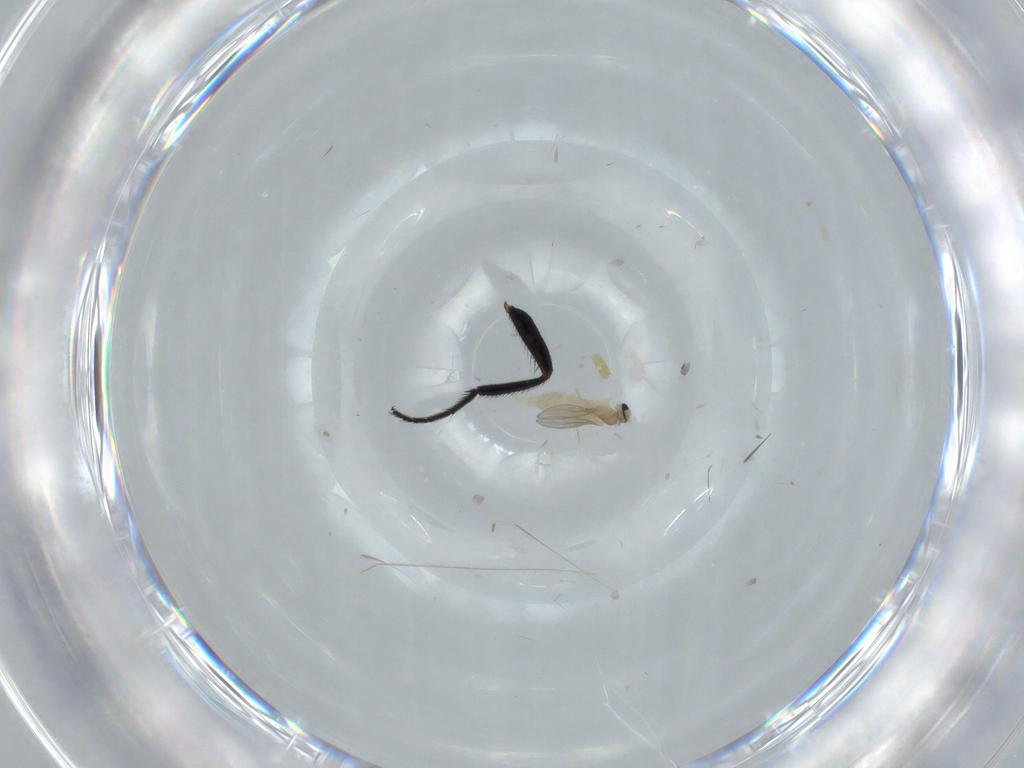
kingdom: Animalia
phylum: Arthropoda
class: Insecta
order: Diptera
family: Cecidomyiidae
